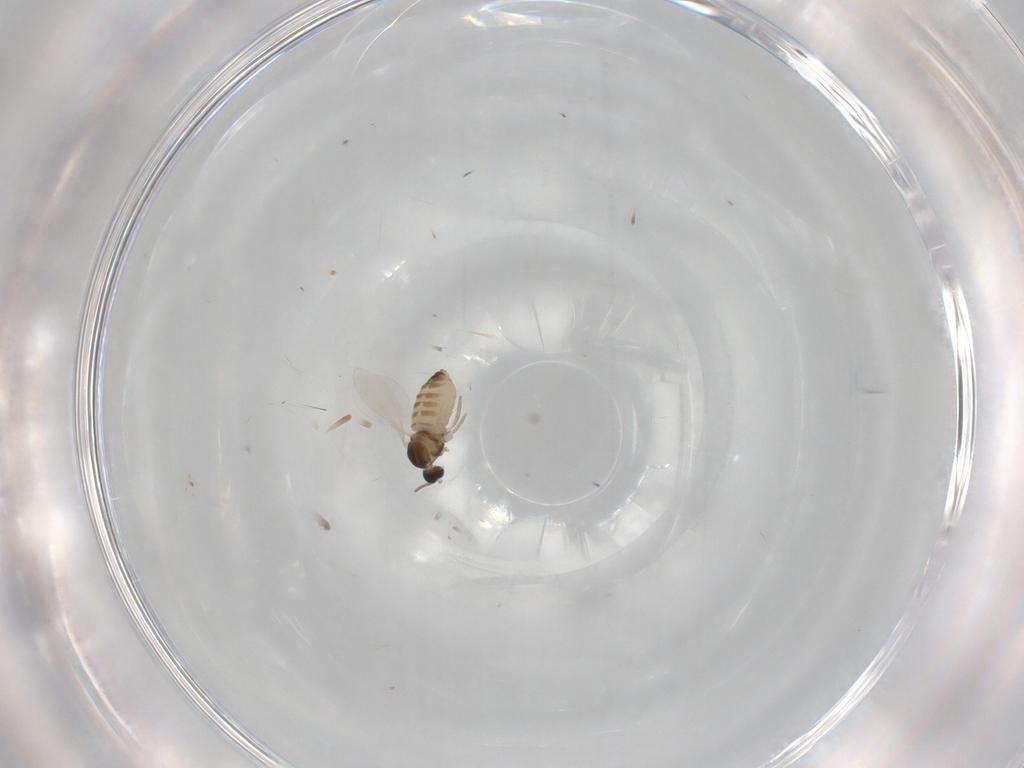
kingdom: Animalia
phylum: Arthropoda
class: Insecta
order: Diptera
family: Cecidomyiidae
